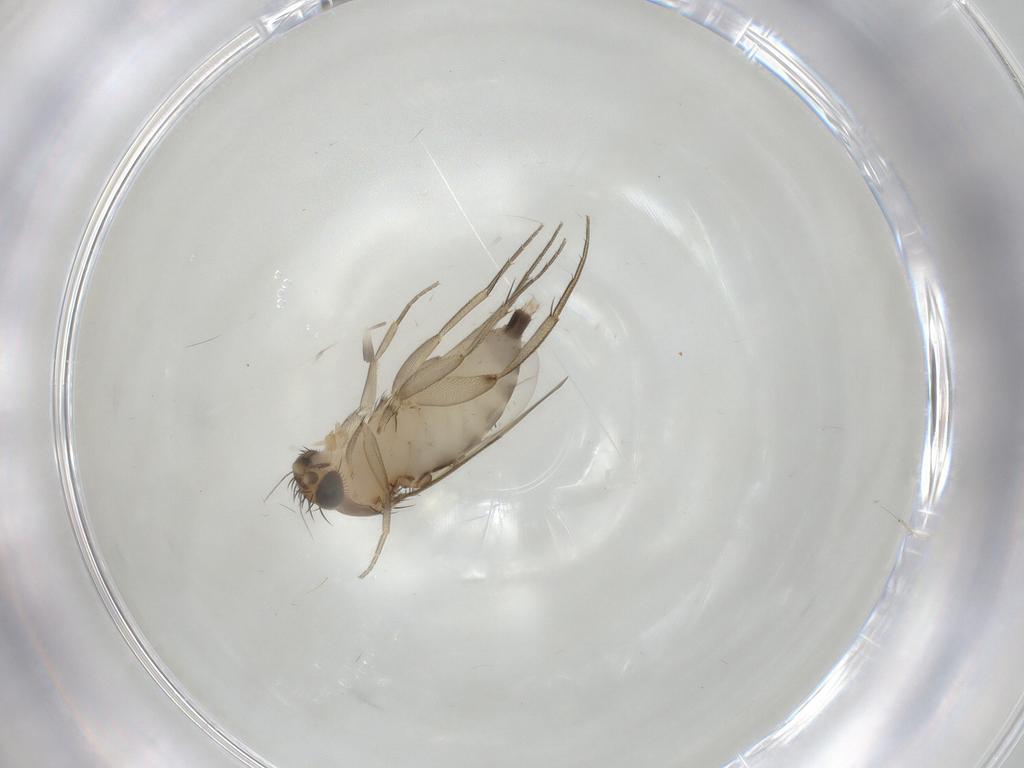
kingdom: Animalia
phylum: Arthropoda
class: Insecta
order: Diptera
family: Phoridae
